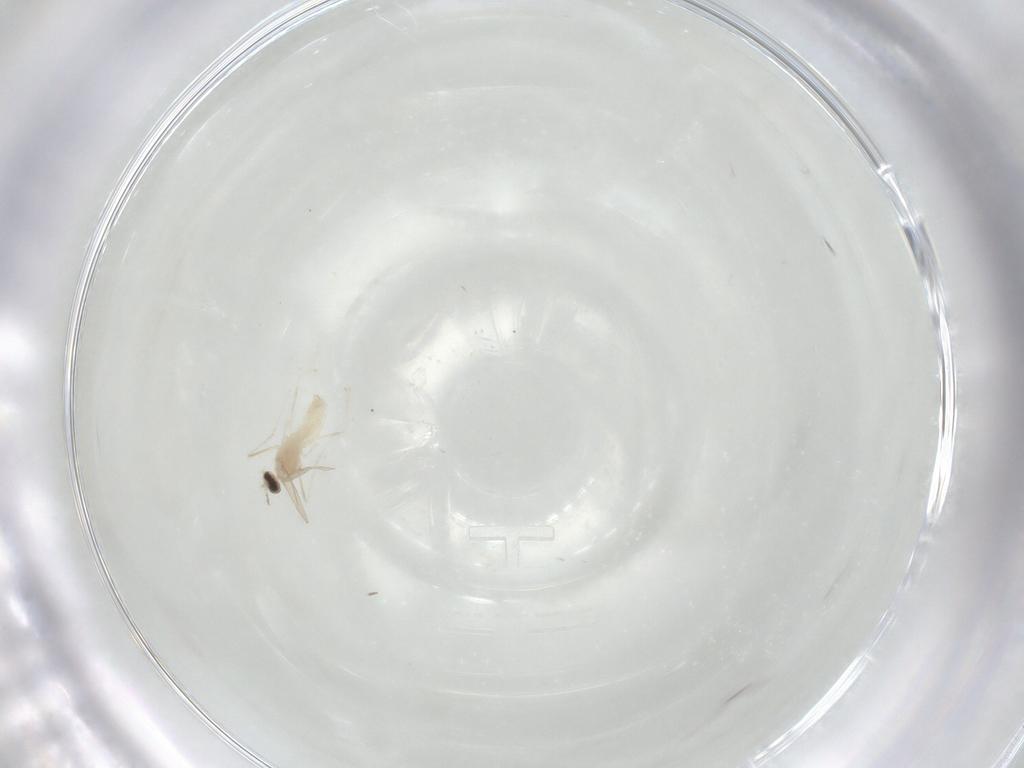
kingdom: Animalia
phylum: Arthropoda
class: Insecta
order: Diptera
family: Cecidomyiidae
